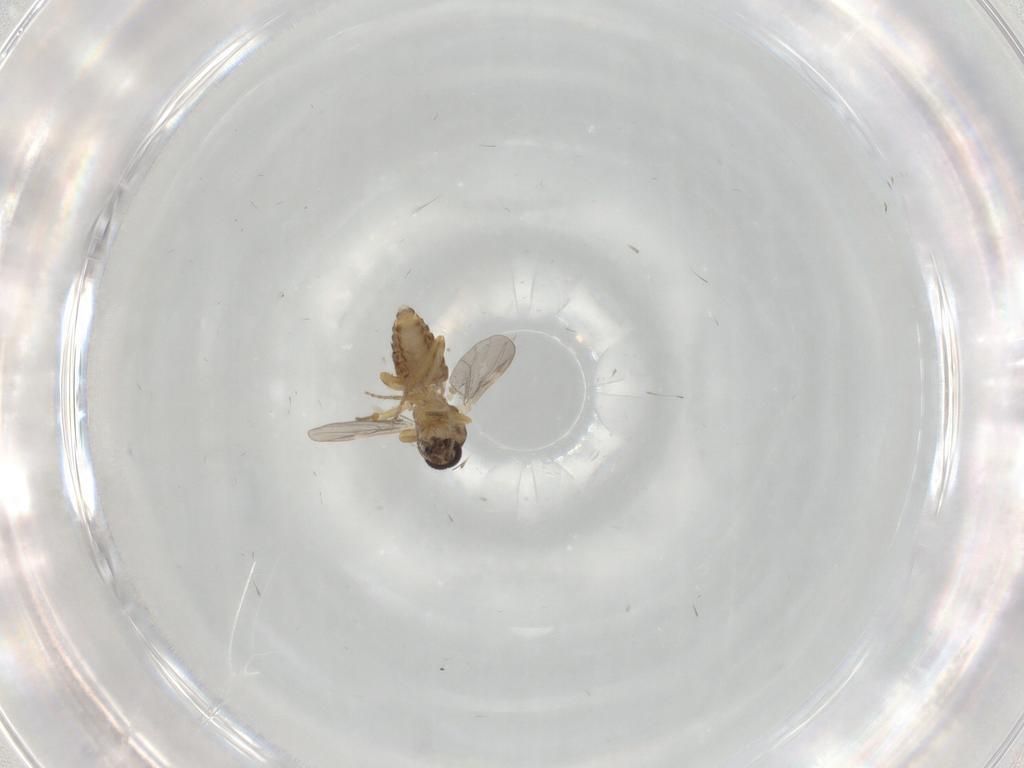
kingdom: Animalia
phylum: Arthropoda
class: Insecta
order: Diptera
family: Ceratopogonidae
